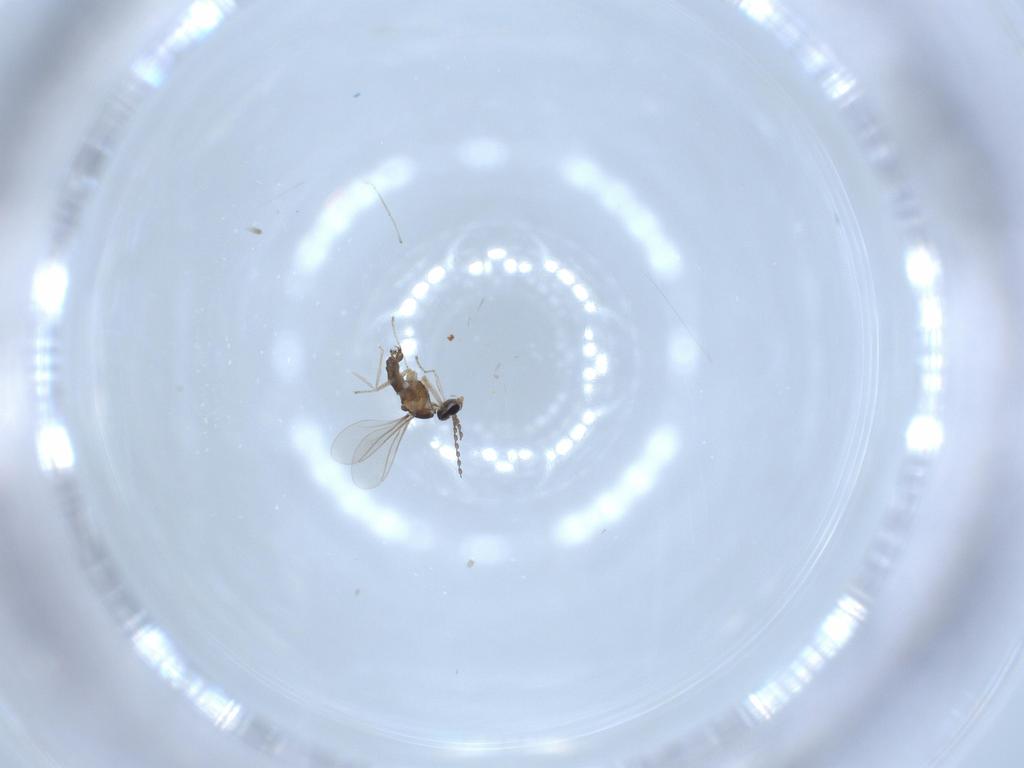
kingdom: Animalia
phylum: Arthropoda
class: Insecta
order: Diptera
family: Cecidomyiidae
